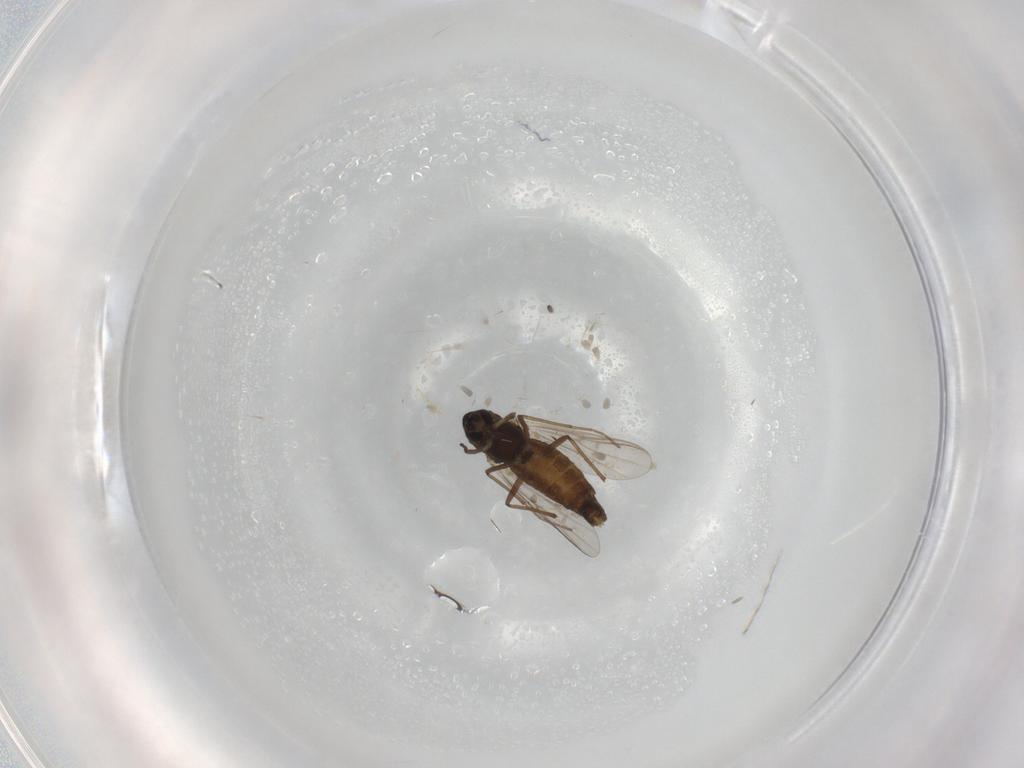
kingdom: Animalia
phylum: Arthropoda
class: Insecta
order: Diptera
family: Chironomidae
